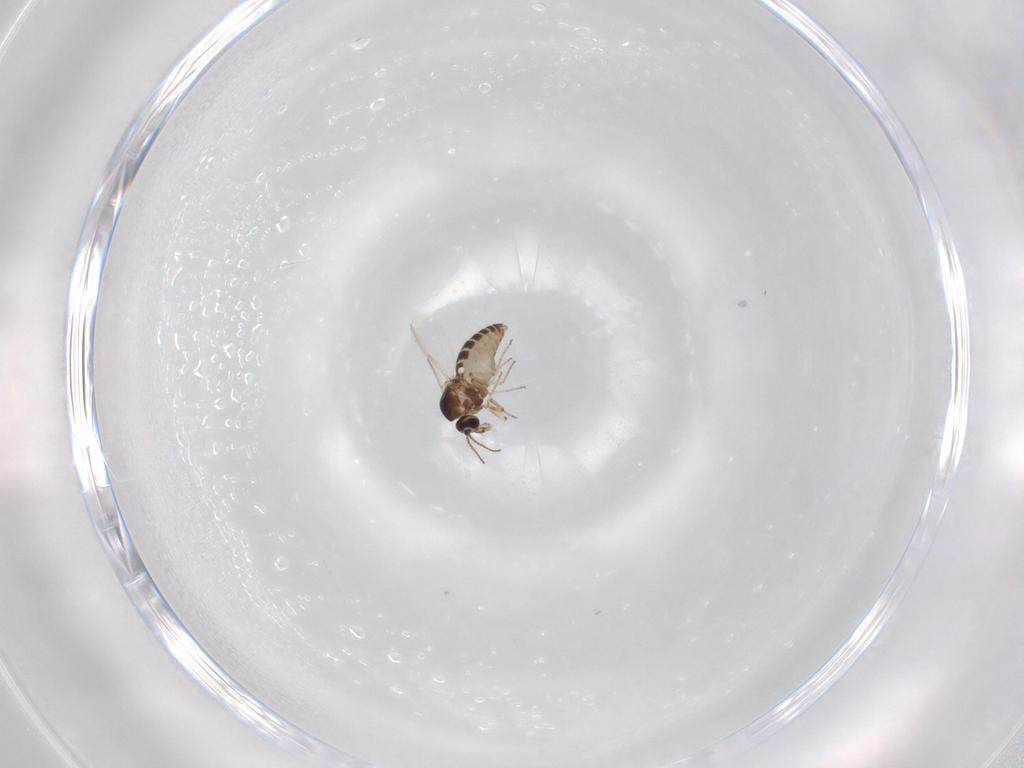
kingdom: Animalia
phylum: Arthropoda
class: Insecta
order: Diptera
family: Ceratopogonidae
